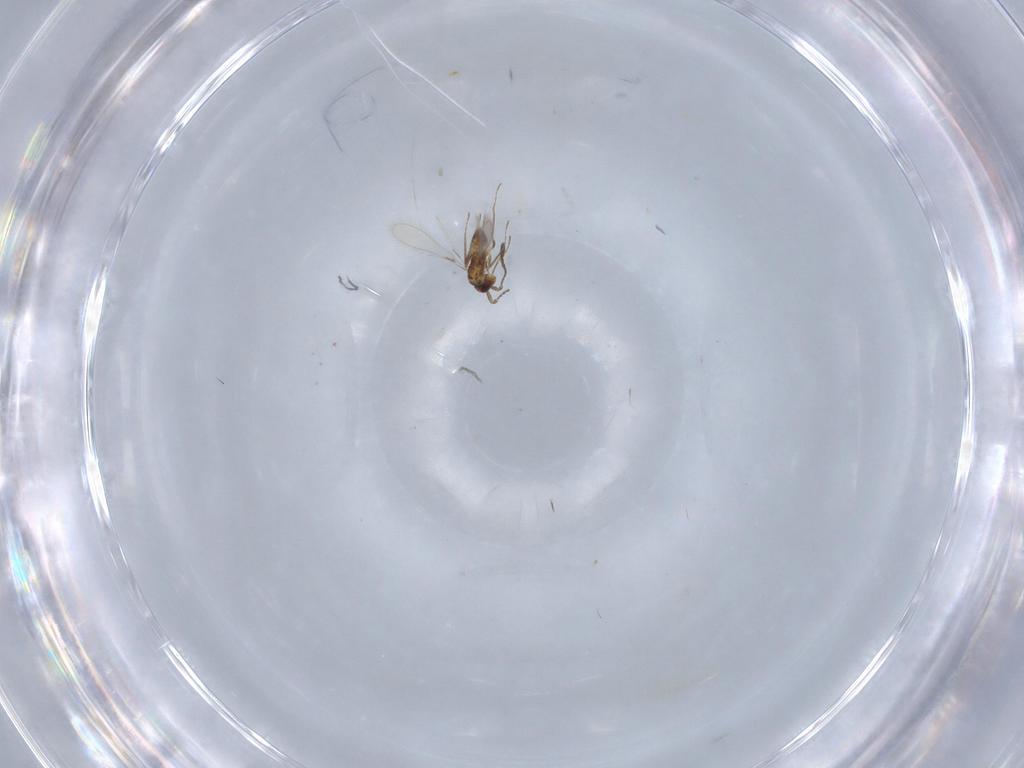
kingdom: Animalia
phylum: Arthropoda
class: Insecta
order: Hymenoptera
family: Mymaridae
